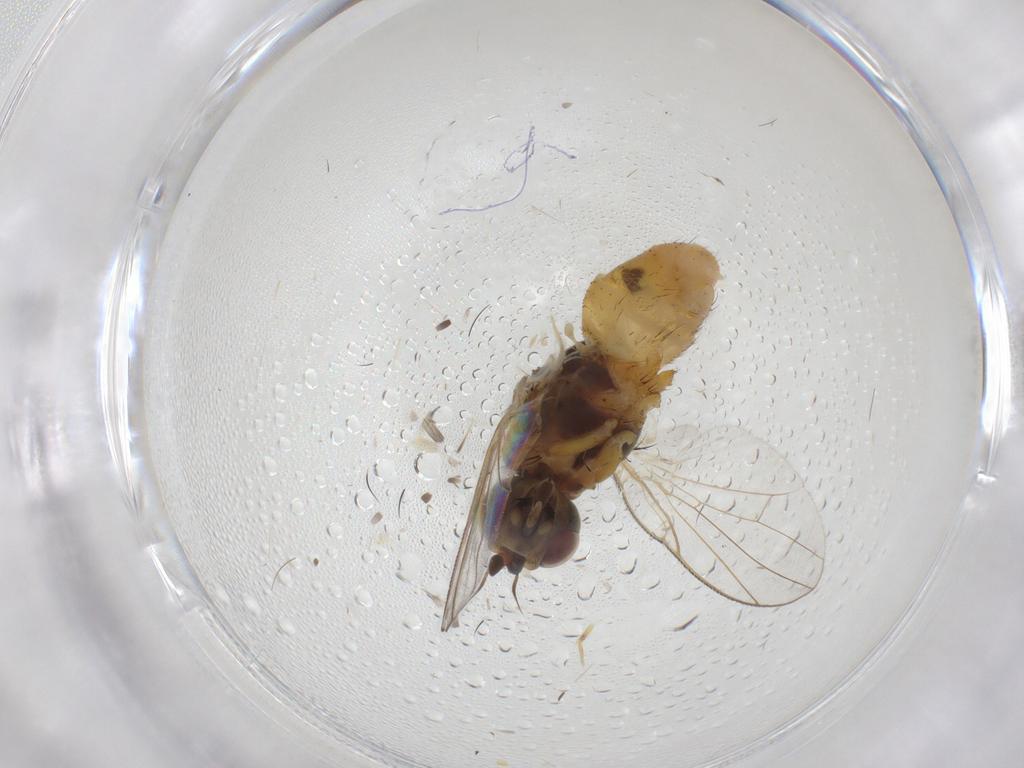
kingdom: Animalia
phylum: Arthropoda
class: Insecta
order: Diptera
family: Muscidae
